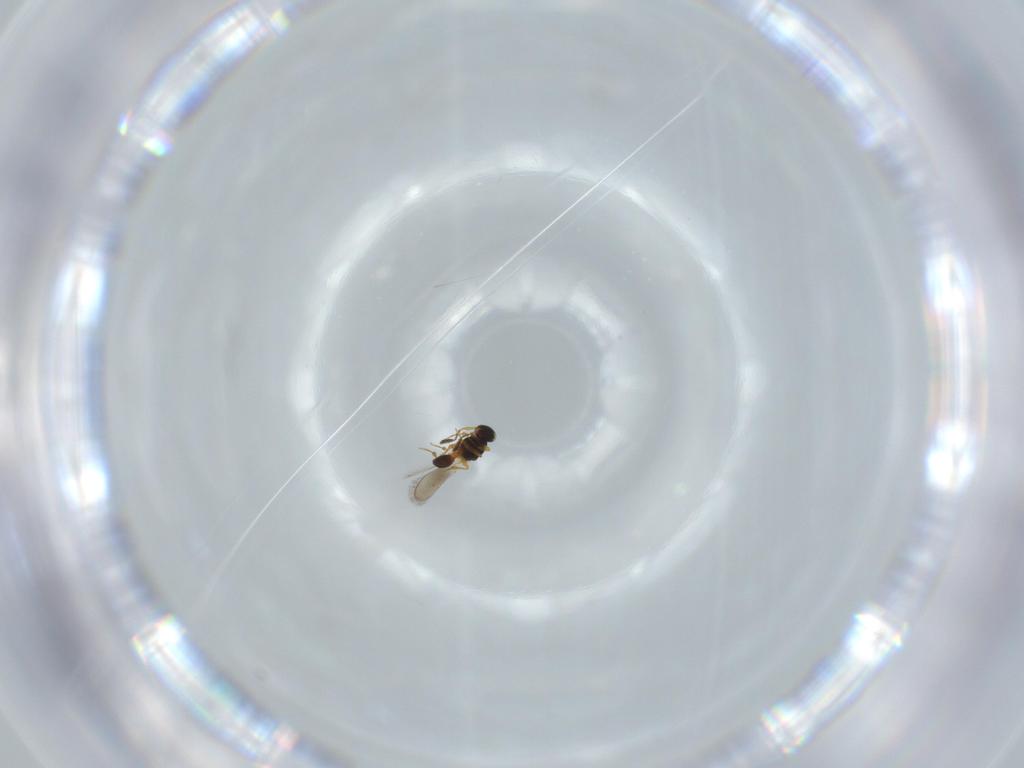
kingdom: Animalia
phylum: Arthropoda
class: Insecta
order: Hymenoptera
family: Platygastridae
